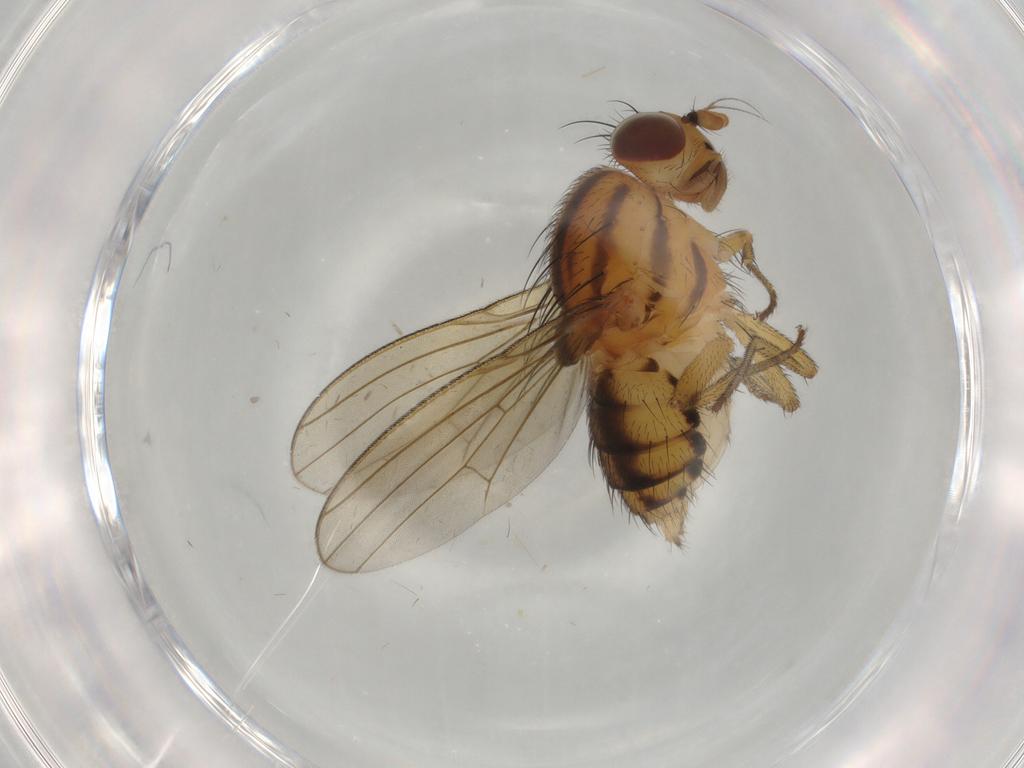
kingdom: Animalia
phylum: Arthropoda
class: Insecta
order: Diptera
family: Lauxaniidae
